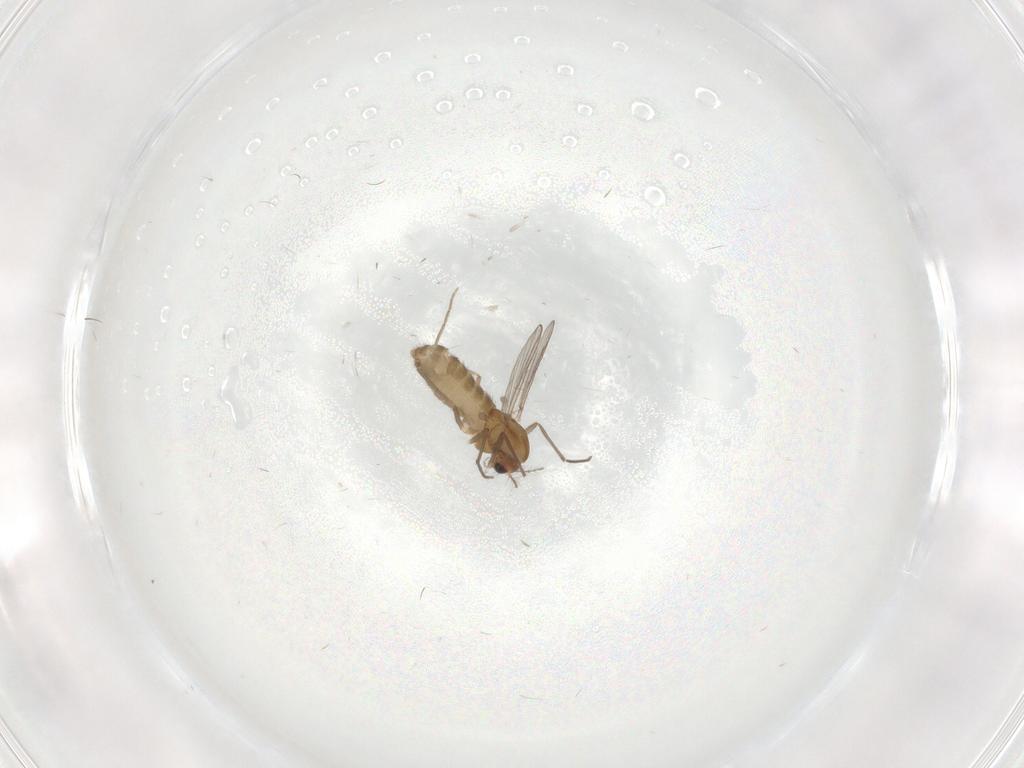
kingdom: Animalia
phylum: Arthropoda
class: Insecta
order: Diptera
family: Chironomidae
